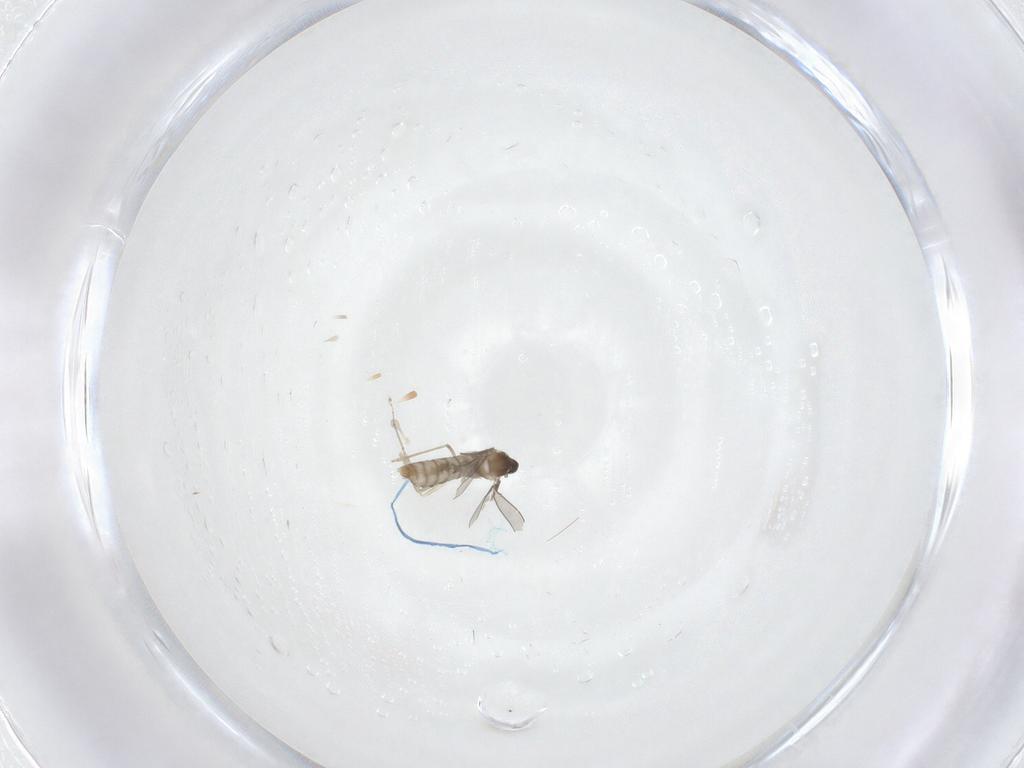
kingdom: Animalia
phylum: Arthropoda
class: Insecta
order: Diptera
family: Cecidomyiidae
